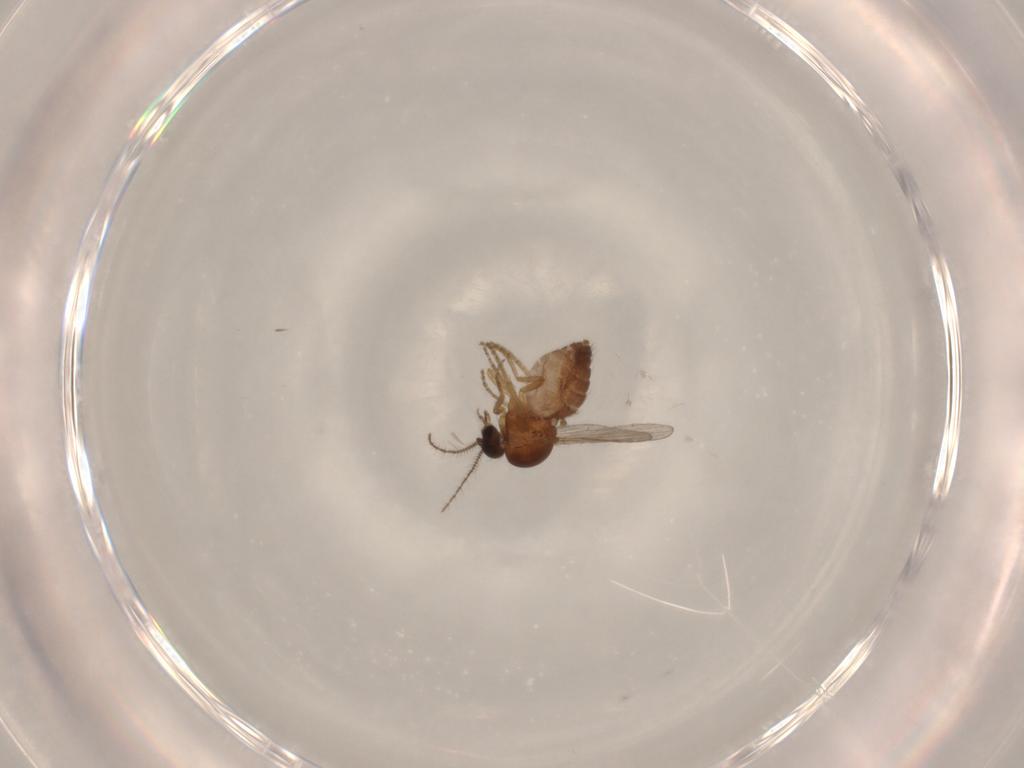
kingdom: Animalia
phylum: Arthropoda
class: Insecta
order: Diptera
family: Ceratopogonidae
